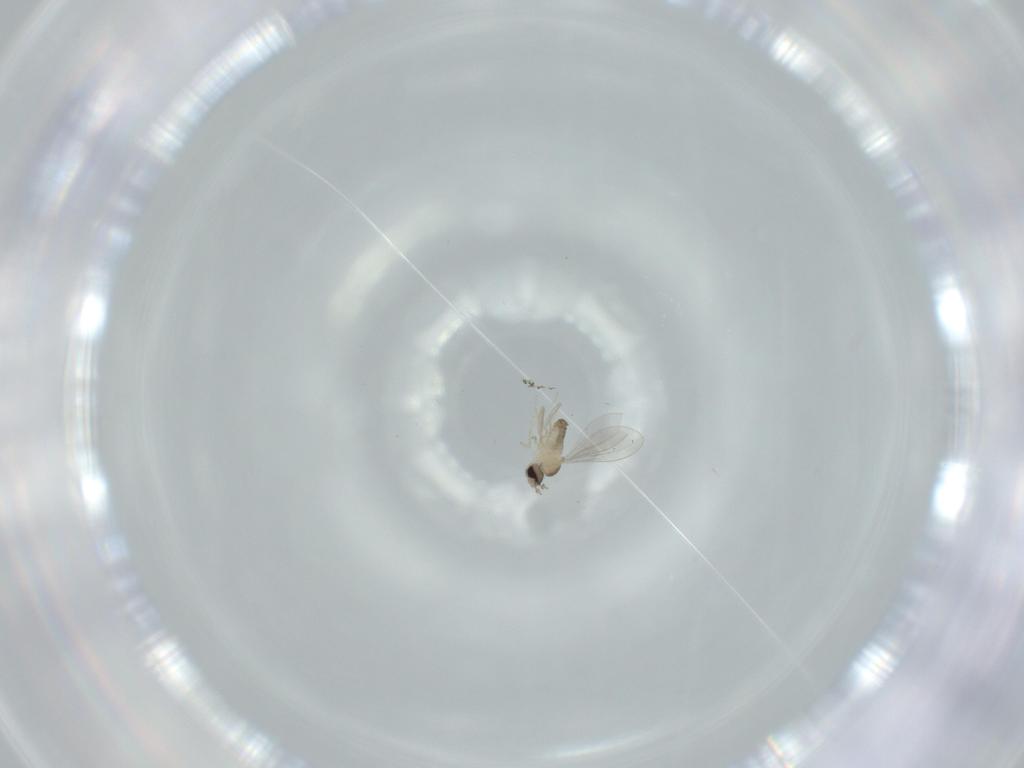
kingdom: Animalia
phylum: Arthropoda
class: Insecta
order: Diptera
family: Cecidomyiidae
